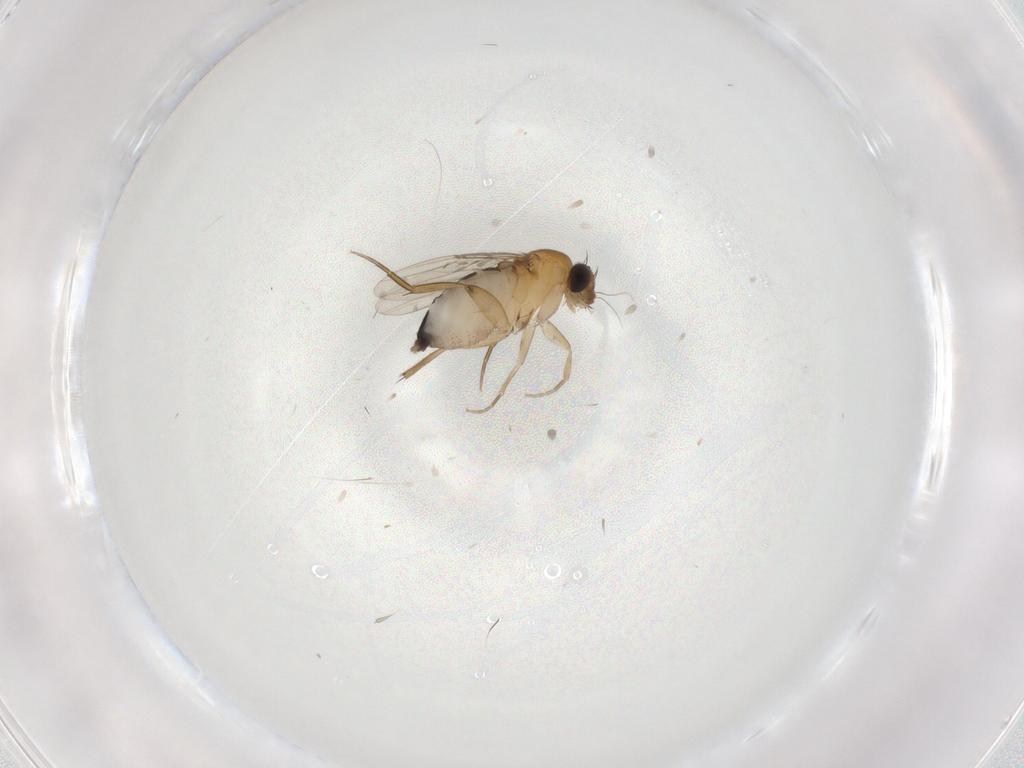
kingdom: Animalia
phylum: Arthropoda
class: Insecta
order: Diptera
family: Phoridae
